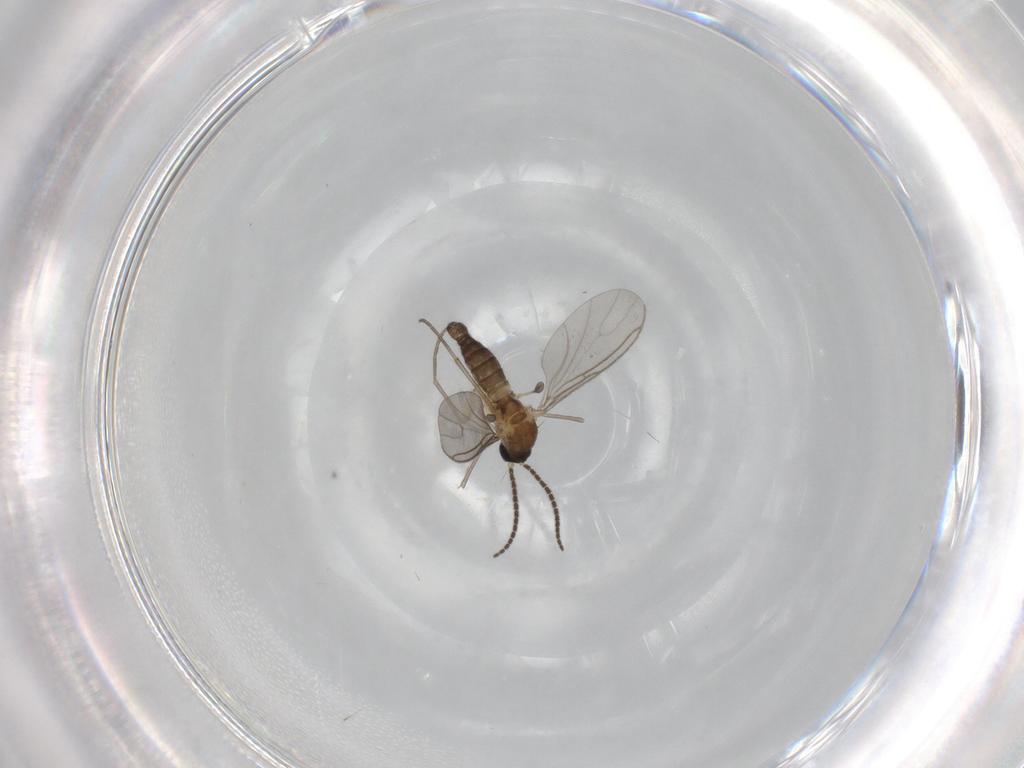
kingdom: Animalia
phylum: Arthropoda
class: Insecta
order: Diptera
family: Sciaridae
